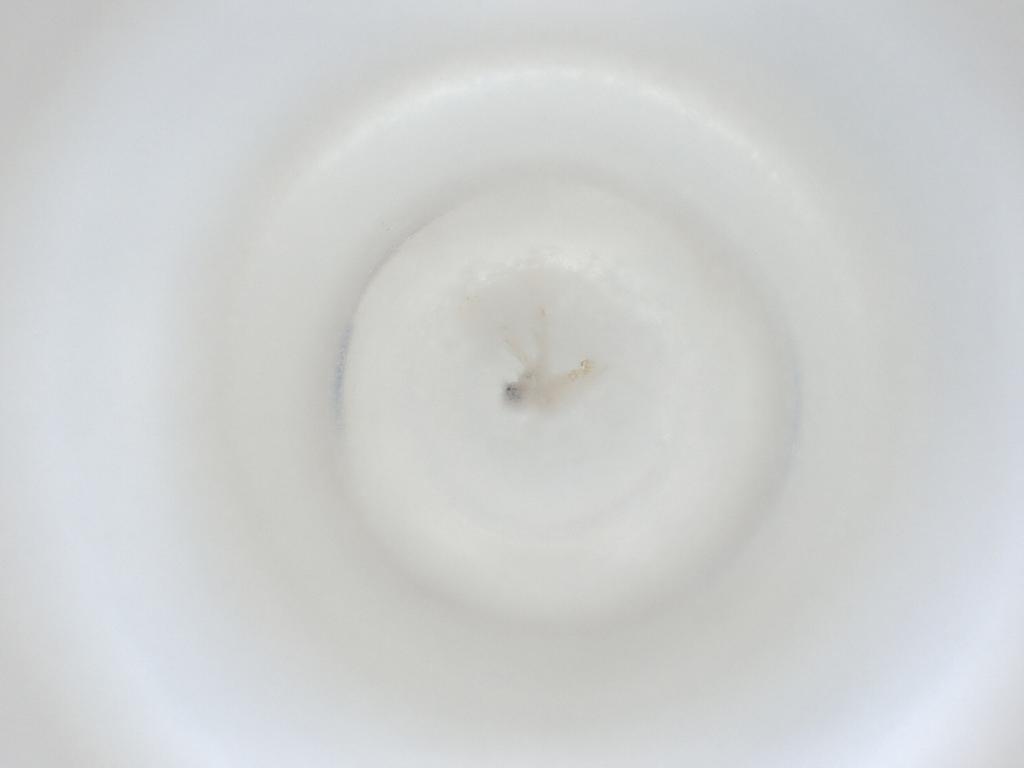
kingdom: Animalia
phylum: Arthropoda
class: Insecta
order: Diptera
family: Cecidomyiidae
